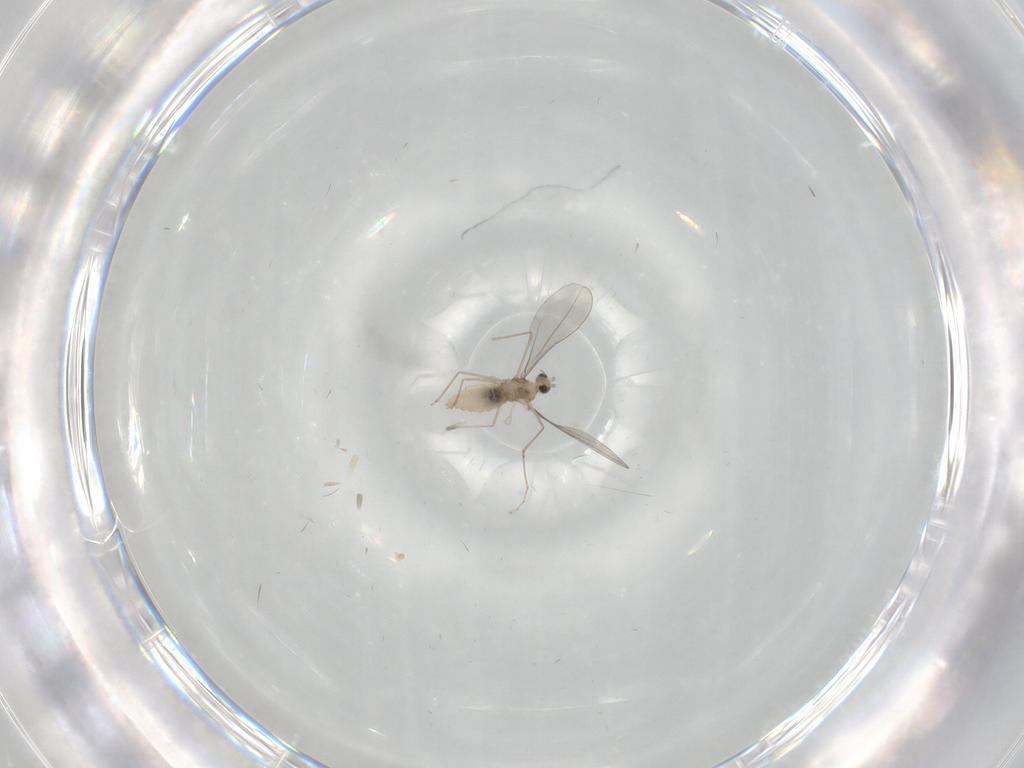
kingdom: Animalia
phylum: Arthropoda
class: Insecta
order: Diptera
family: Cecidomyiidae
